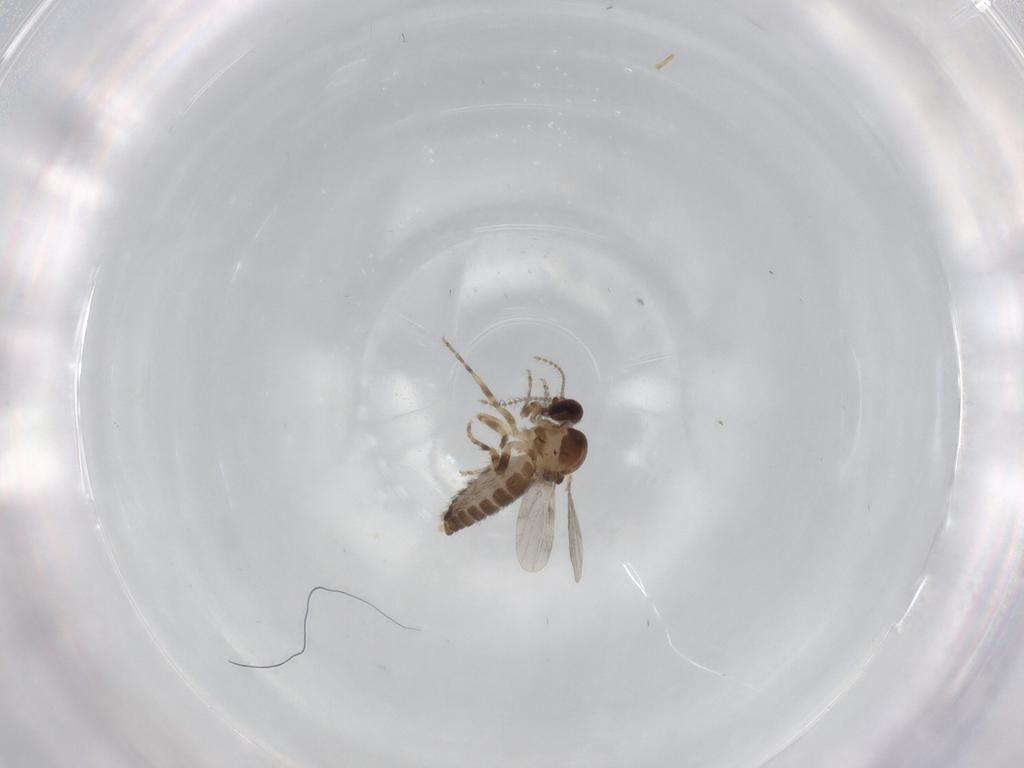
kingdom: Animalia
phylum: Arthropoda
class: Insecta
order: Diptera
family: Ceratopogonidae
